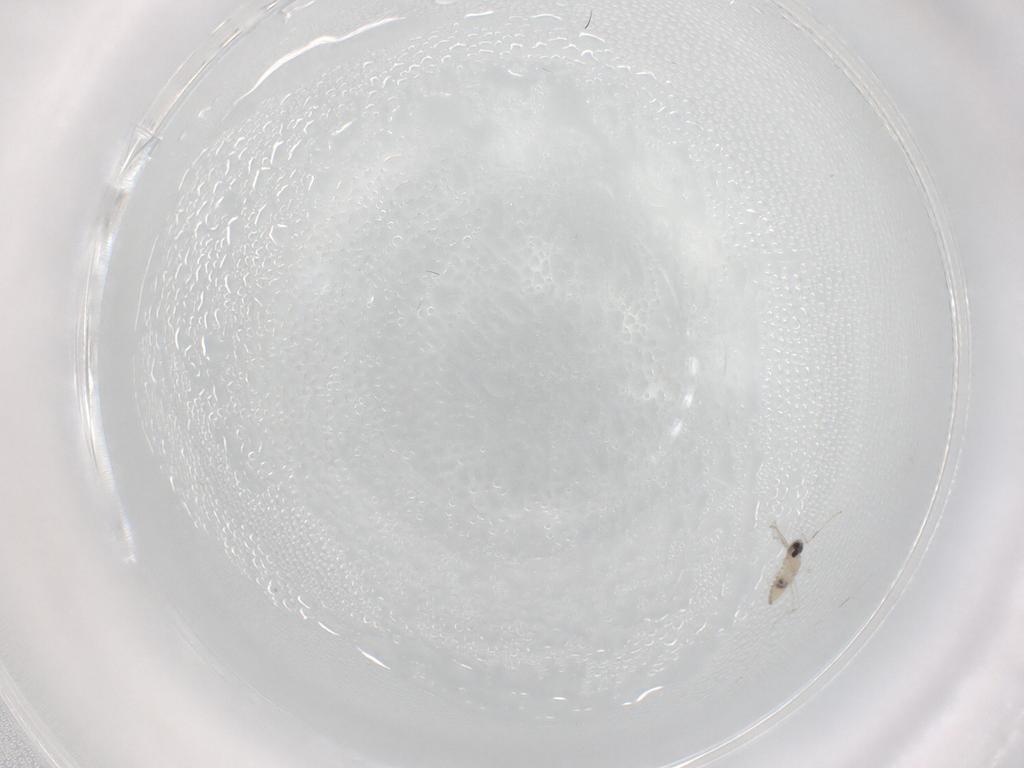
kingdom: Animalia
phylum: Arthropoda
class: Insecta
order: Diptera
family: Cecidomyiidae
